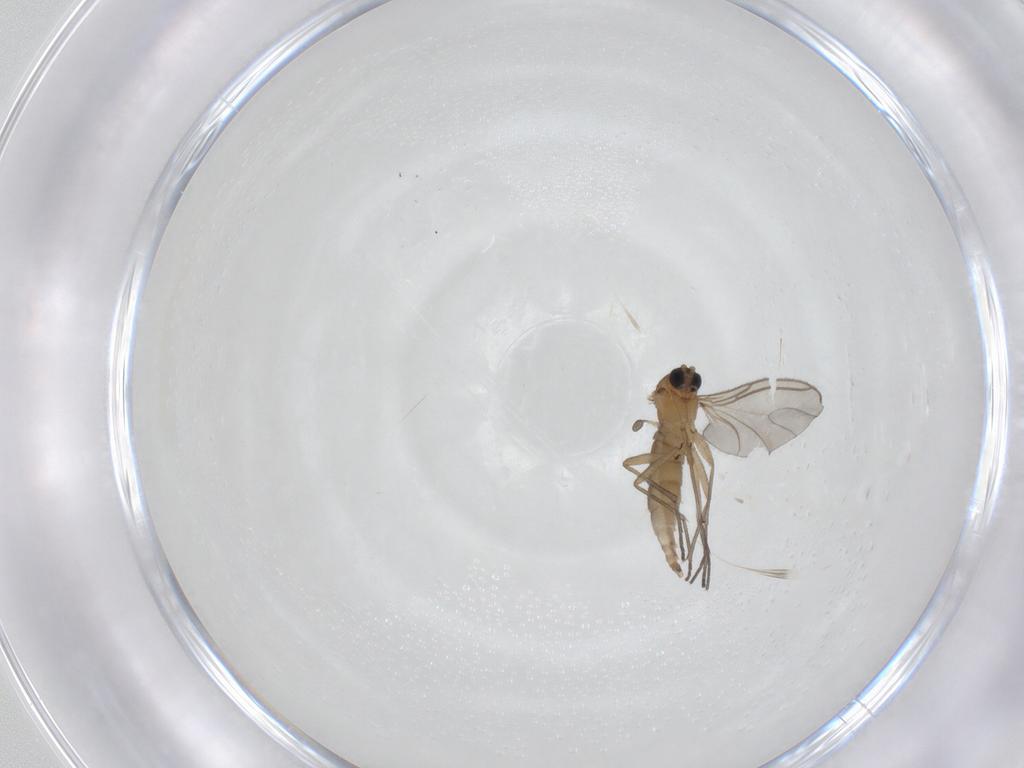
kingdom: Animalia
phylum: Arthropoda
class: Insecta
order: Diptera
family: Sciaridae
